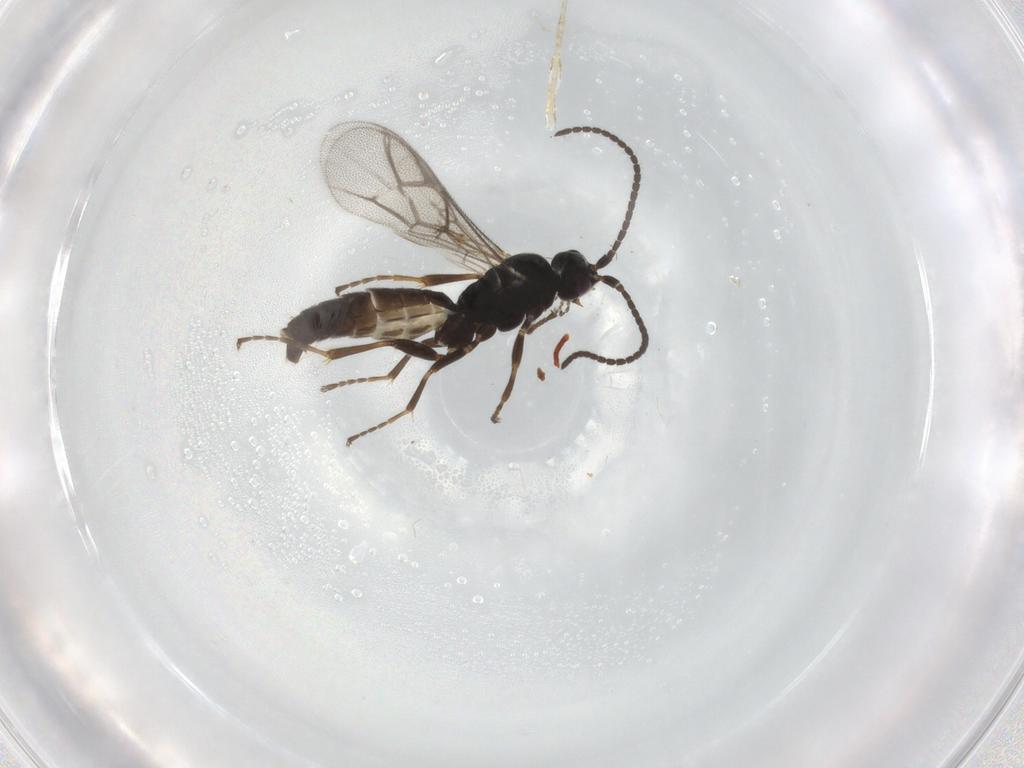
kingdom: Animalia
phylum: Arthropoda
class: Insecta
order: Hymenoptera
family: Ichneumonidae
